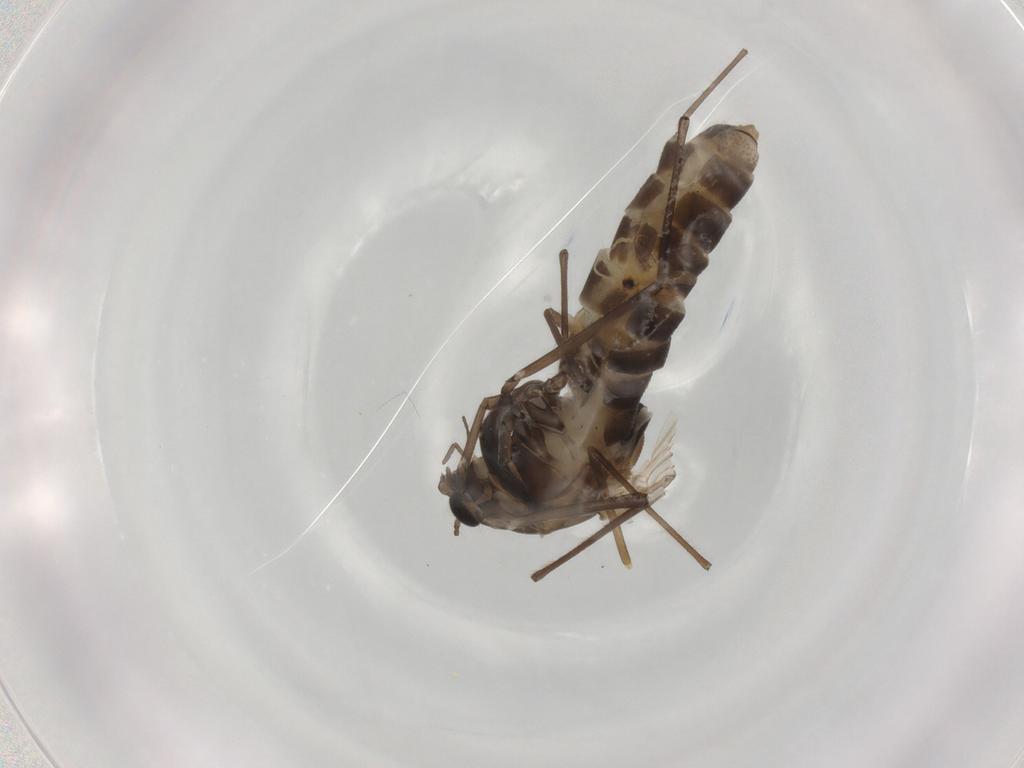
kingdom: Animalia
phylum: Arthropoda
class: Insecta
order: Diptera
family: Chironomidae
